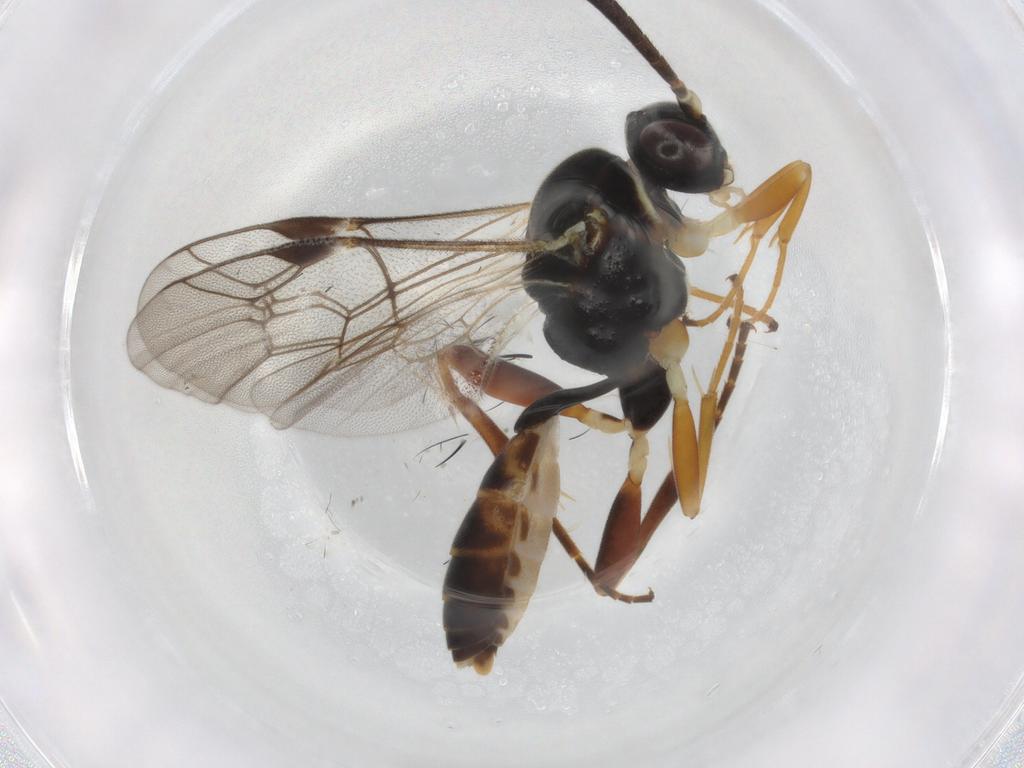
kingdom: Animalia
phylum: Arthropoda
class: Insecta
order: Hymenoptera
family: Ichneumonidae
